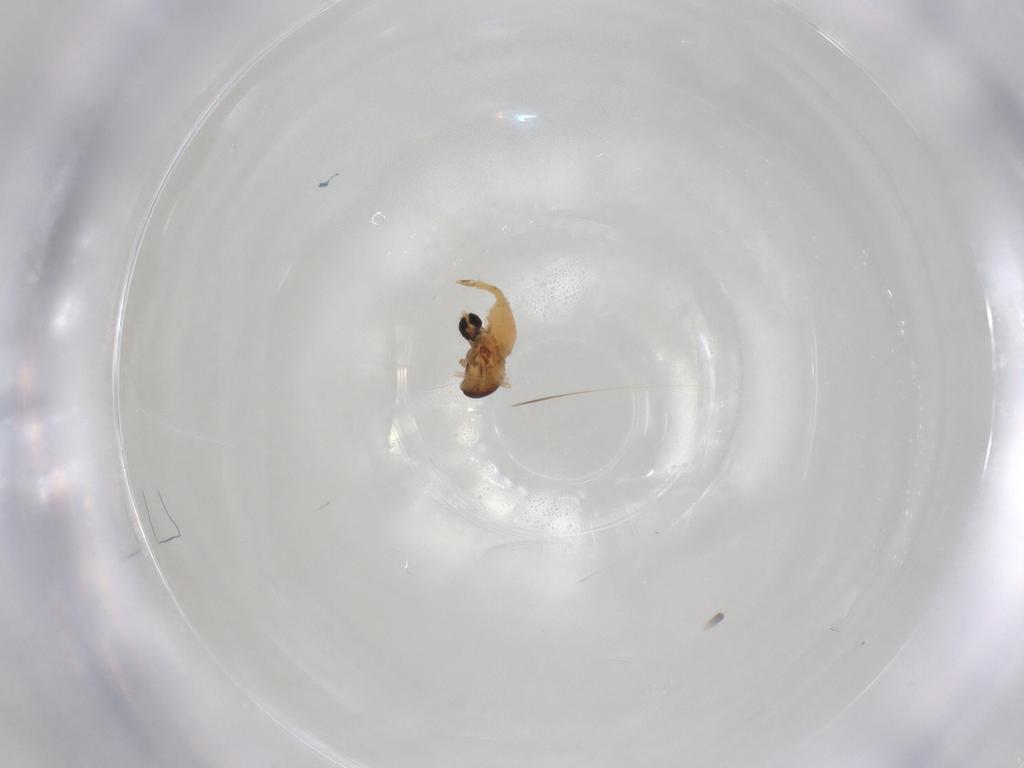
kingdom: Animalia
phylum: Arthropoda
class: Insecta
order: Diptera
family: Cecidomyiidae
